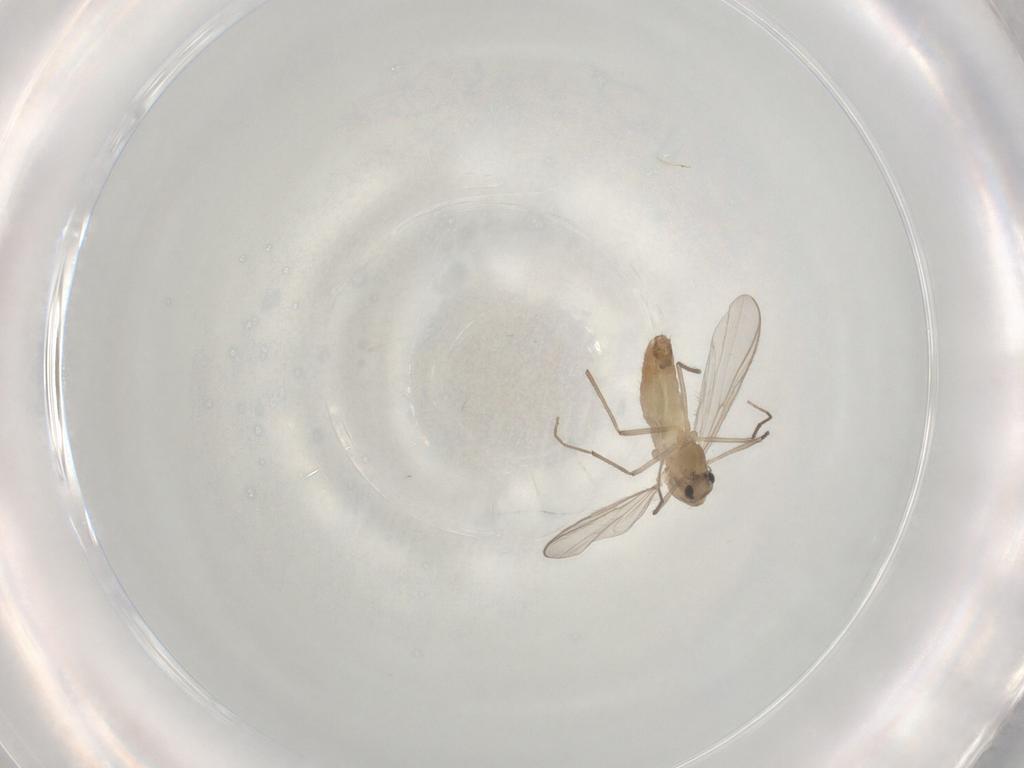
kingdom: Animalia
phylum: Arthropoda
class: Insecta
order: Diptera
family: Chironomidae
